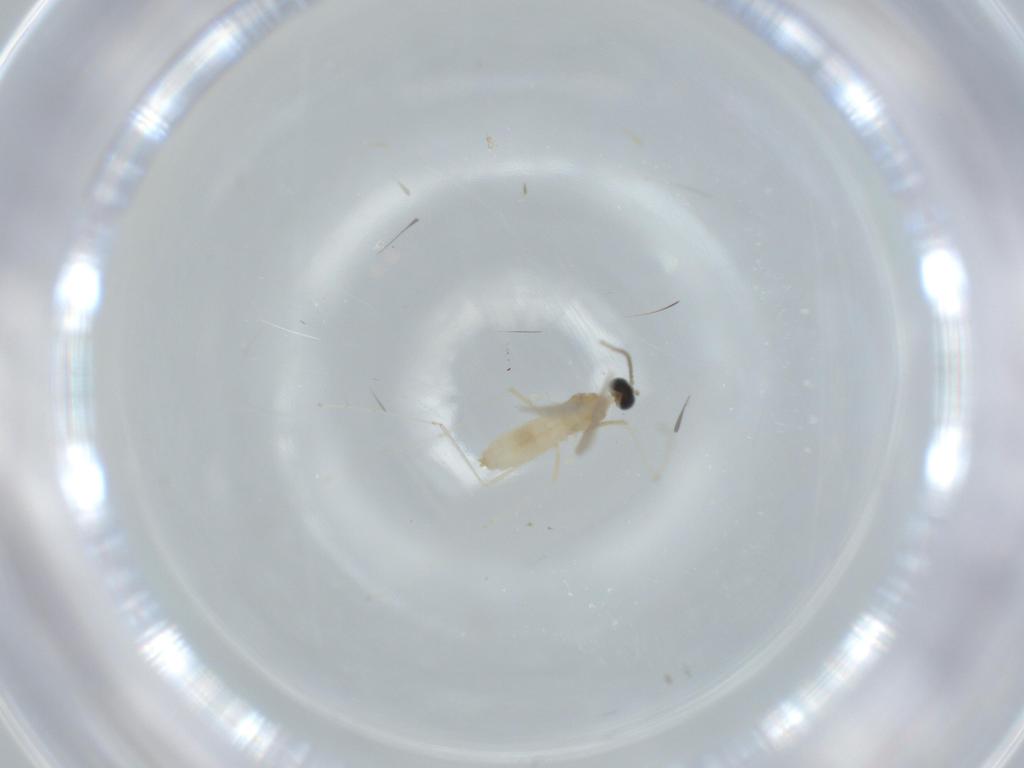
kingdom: Animalia
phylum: Arthropoda
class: Insecta
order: Diptera
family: Cecidomyiidae
